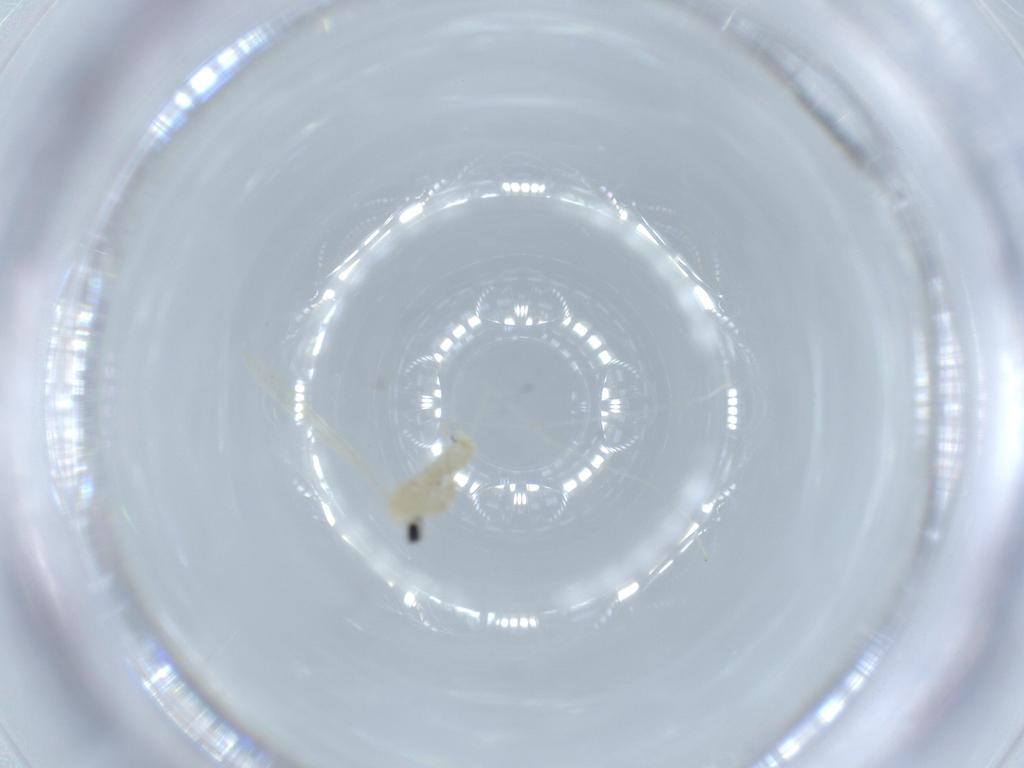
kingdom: Animalia
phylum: Arthropoda
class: Insecta
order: Diptera
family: Cecidomyiidae
